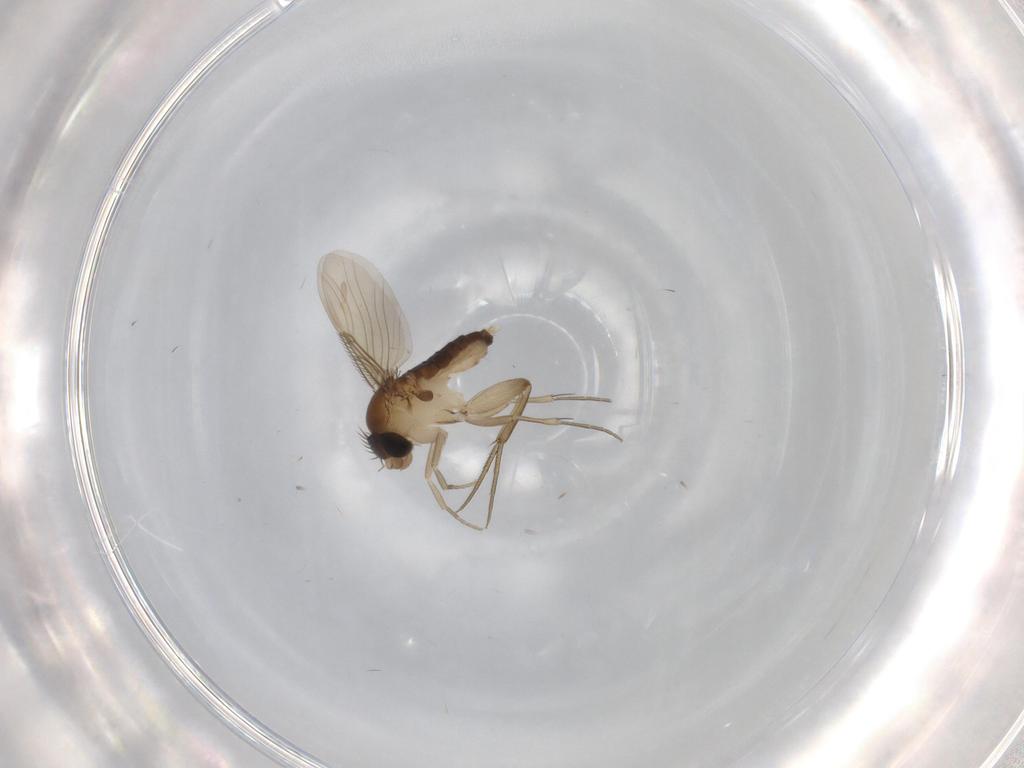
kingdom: Animalia
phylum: Arthropoda
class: Insecta
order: Diptera
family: Phoridae
